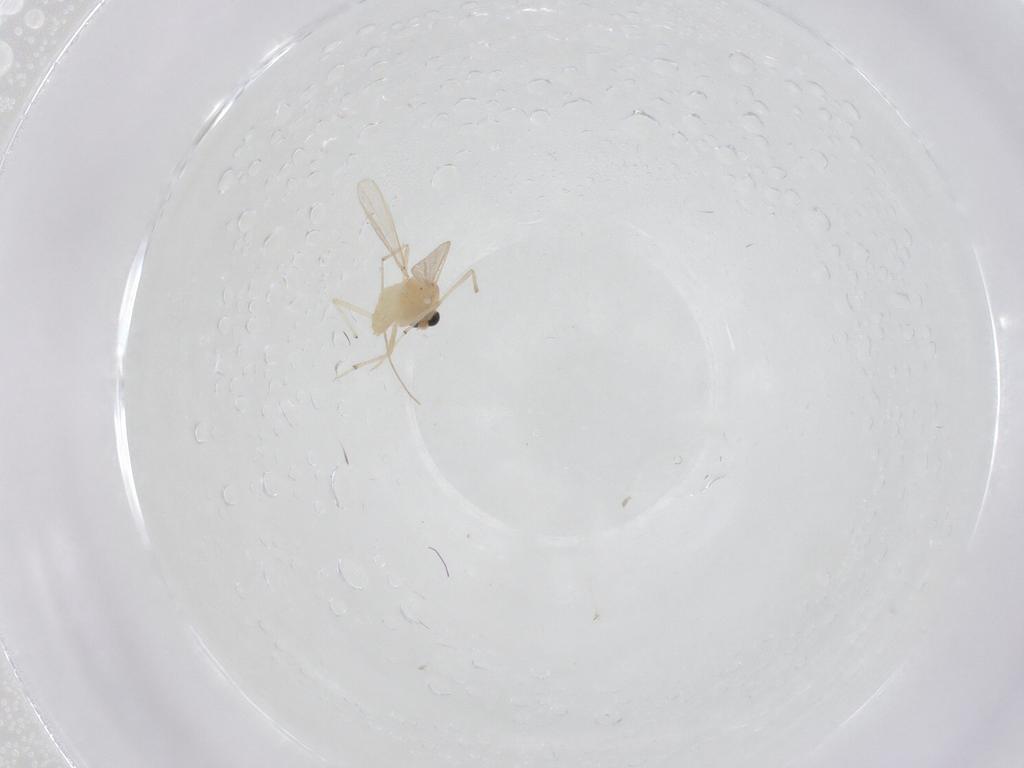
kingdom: Animalia
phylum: Arthropoda
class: Insecta
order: Diptera
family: Chironomidae
